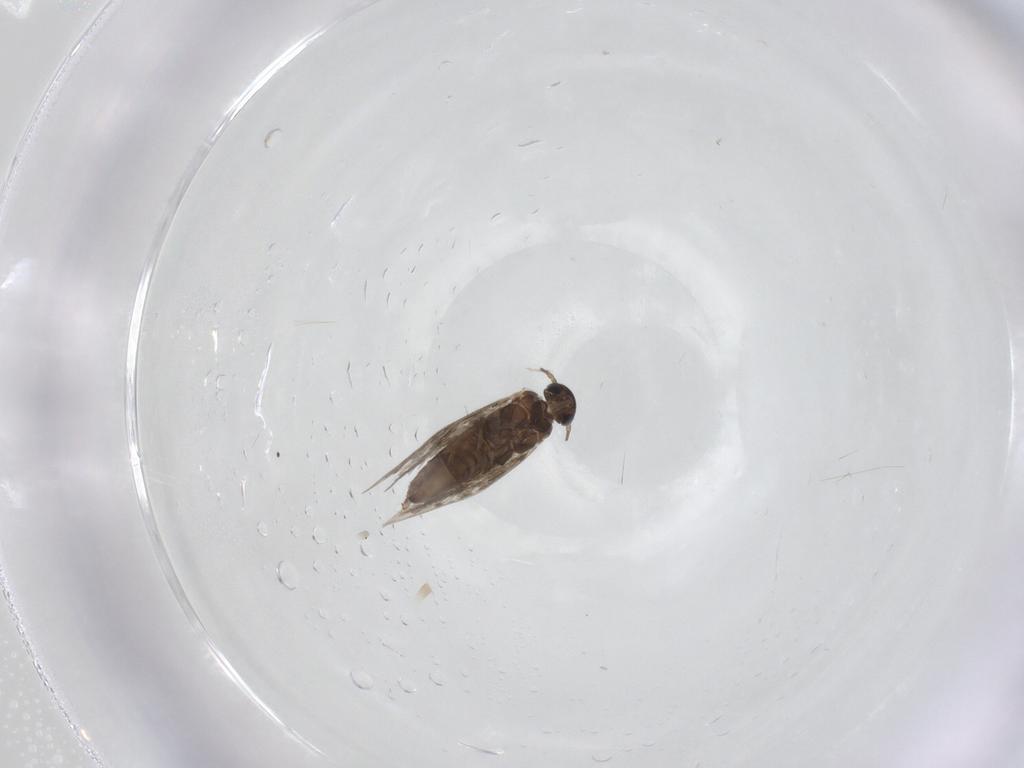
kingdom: Animalia
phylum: Arthropoda
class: Insecta
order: Lepidoptera
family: Heliozelidae
